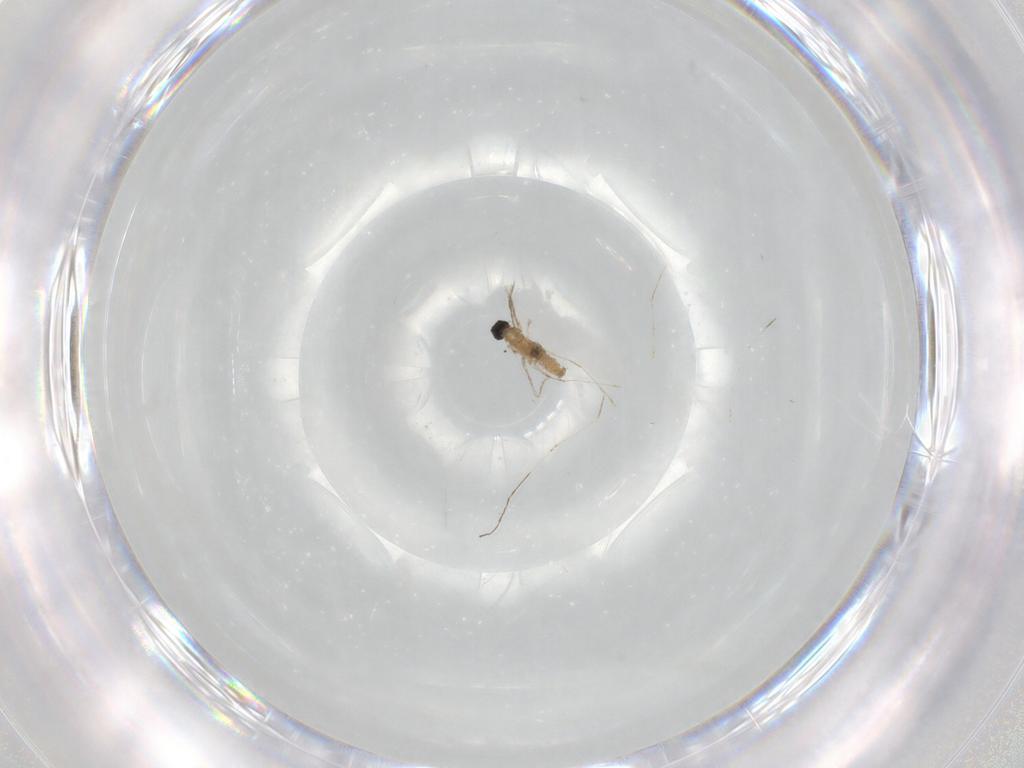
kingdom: Animalia
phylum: Arthropoda
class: Insecta
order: Diptera
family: Cecidomyiidae
